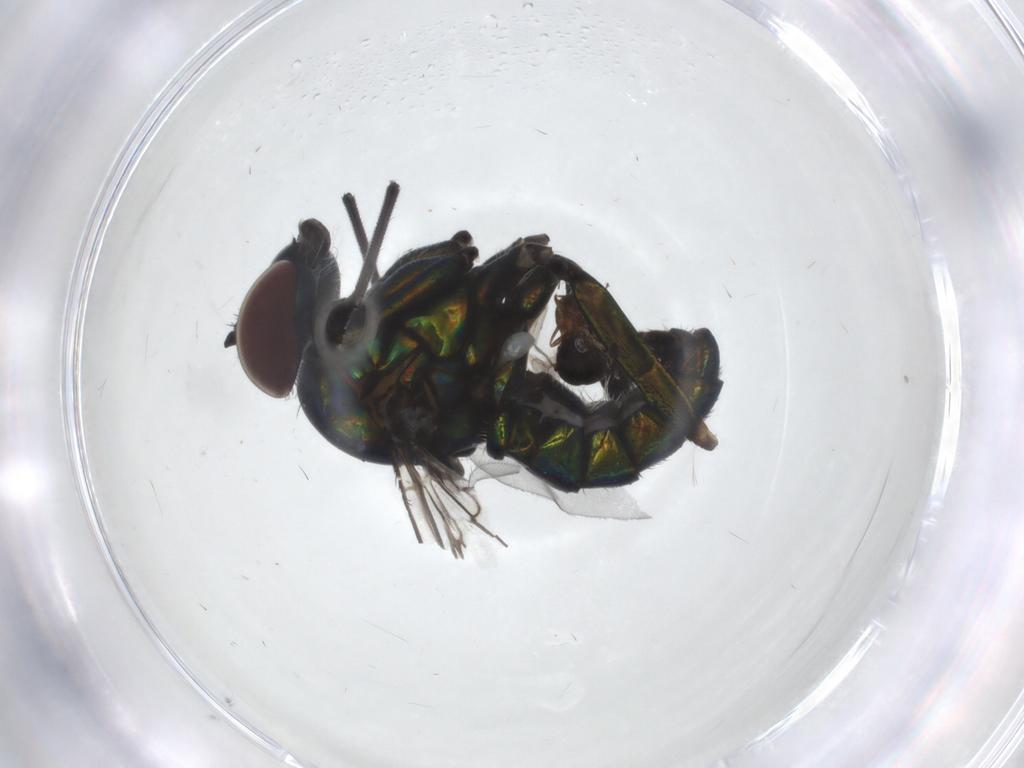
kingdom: Animalia
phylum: Arthropoda
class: Insecta
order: Diptera
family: Dolichopodidae
